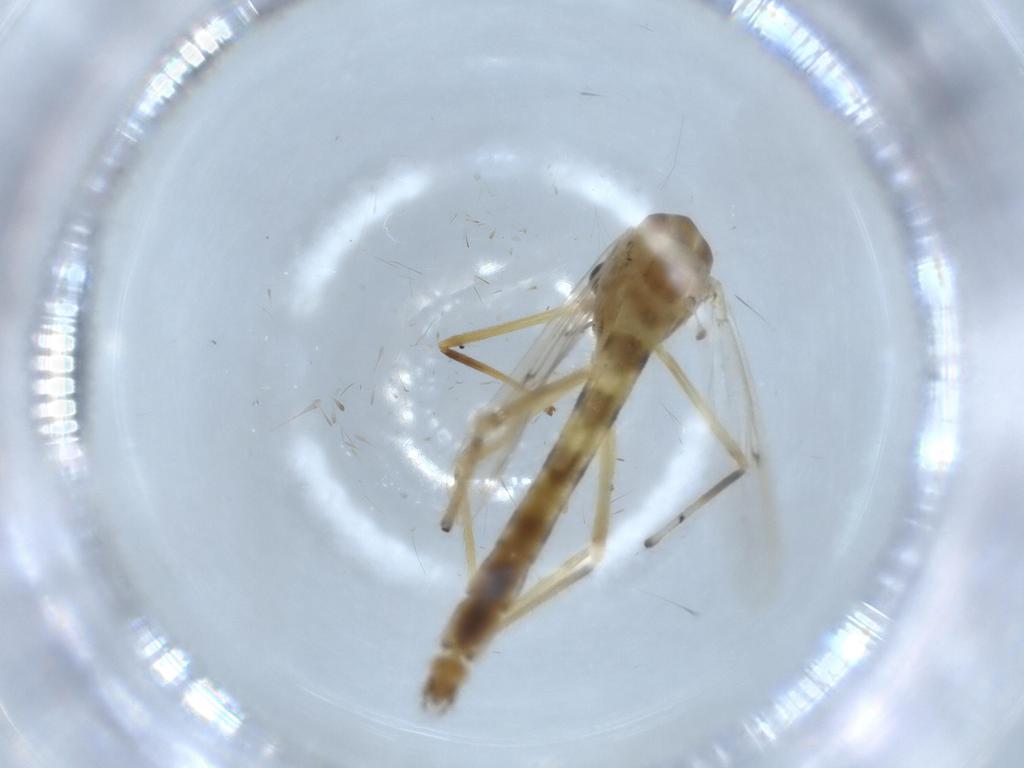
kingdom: Animalia
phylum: Arthropoda
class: Insecta
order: Diptera
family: Chironomidae
